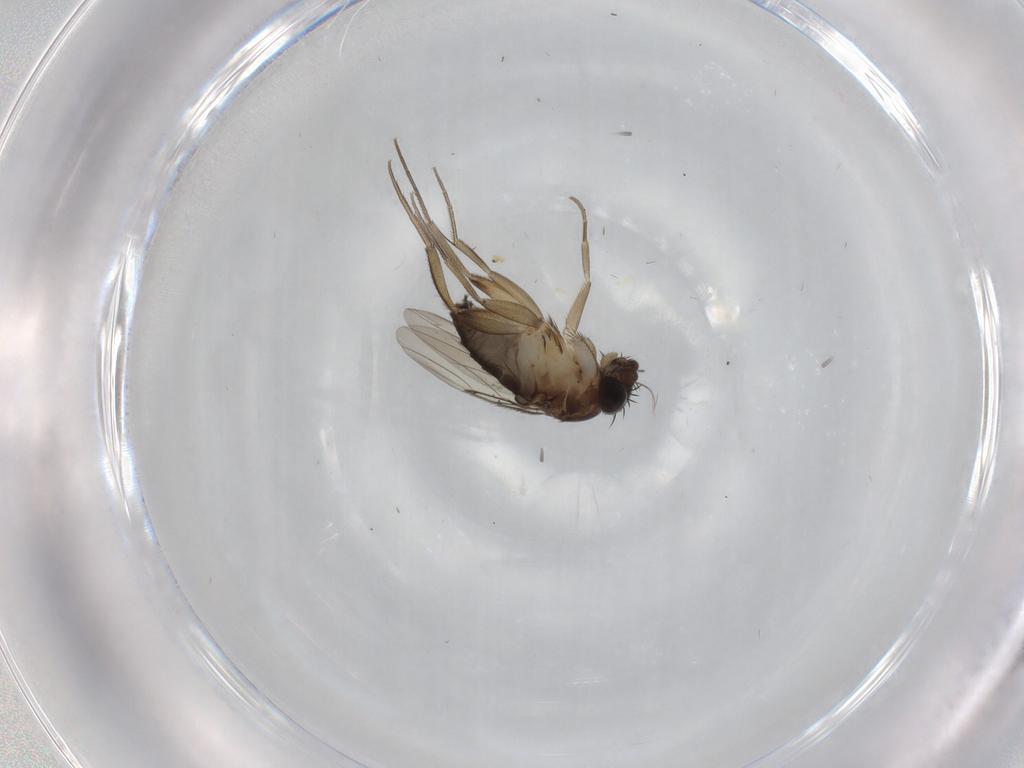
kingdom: Animalia
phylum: Arthropoda
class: Insecta
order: Diptera
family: Phoridae
